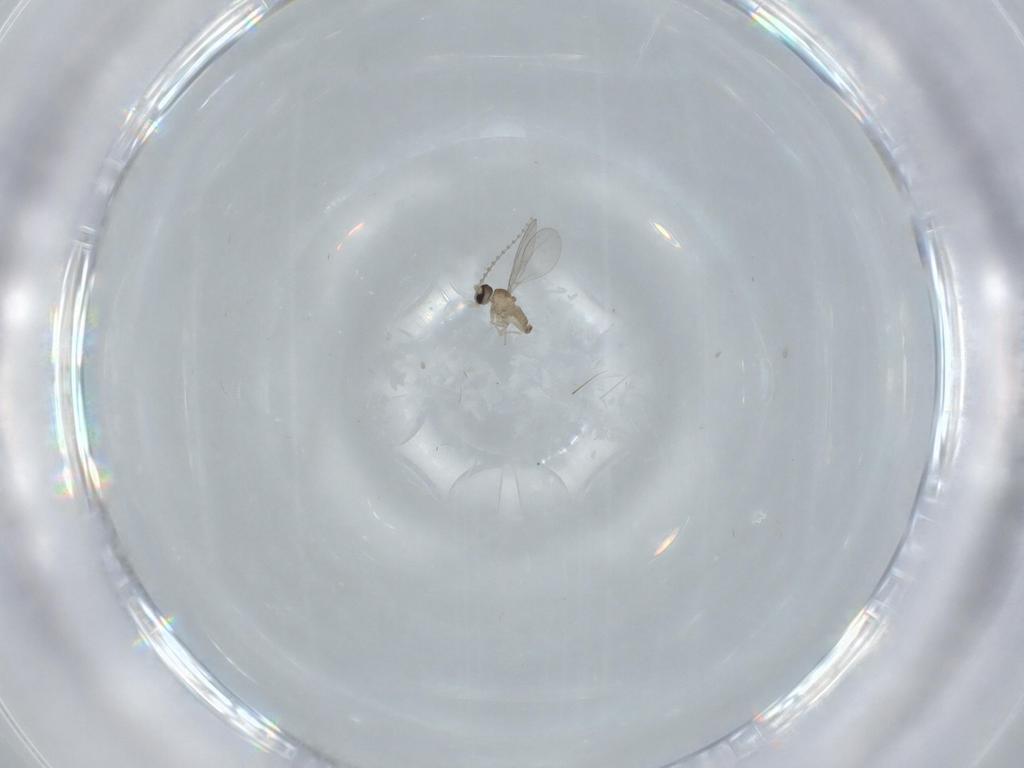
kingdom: Animalia
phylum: Arthropoda
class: Insecta
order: Diptera
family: Cecidomyiidae
